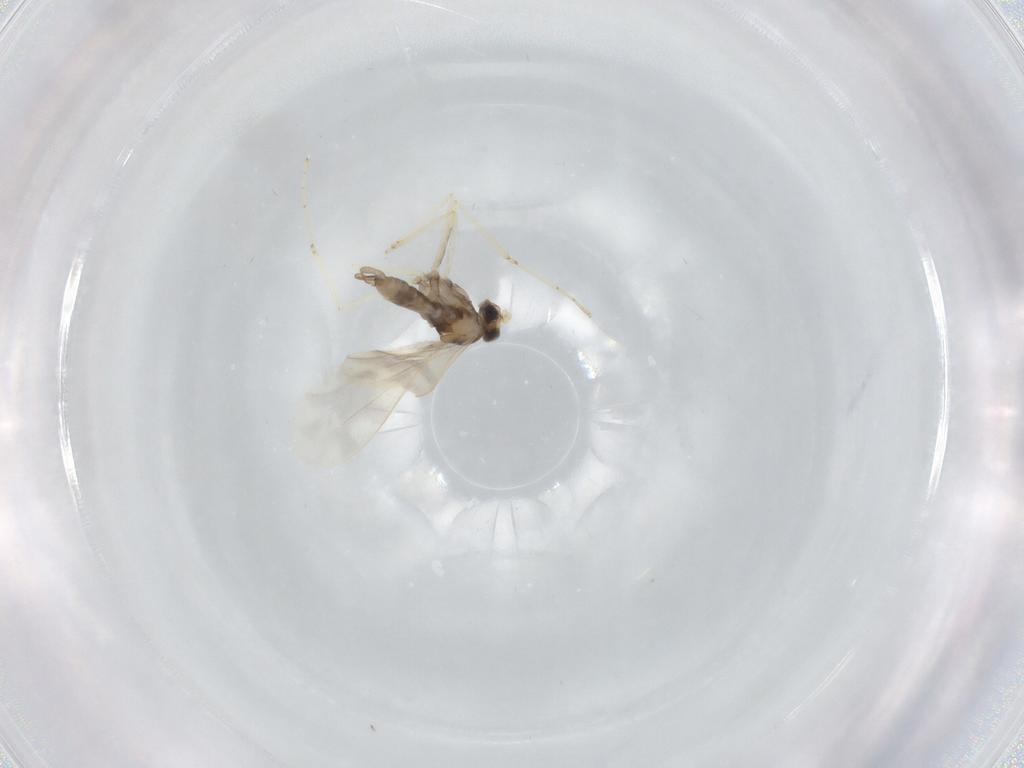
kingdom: Animalia
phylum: Arthropoda
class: Insecta
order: Diptera
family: Cecidomyiidae
